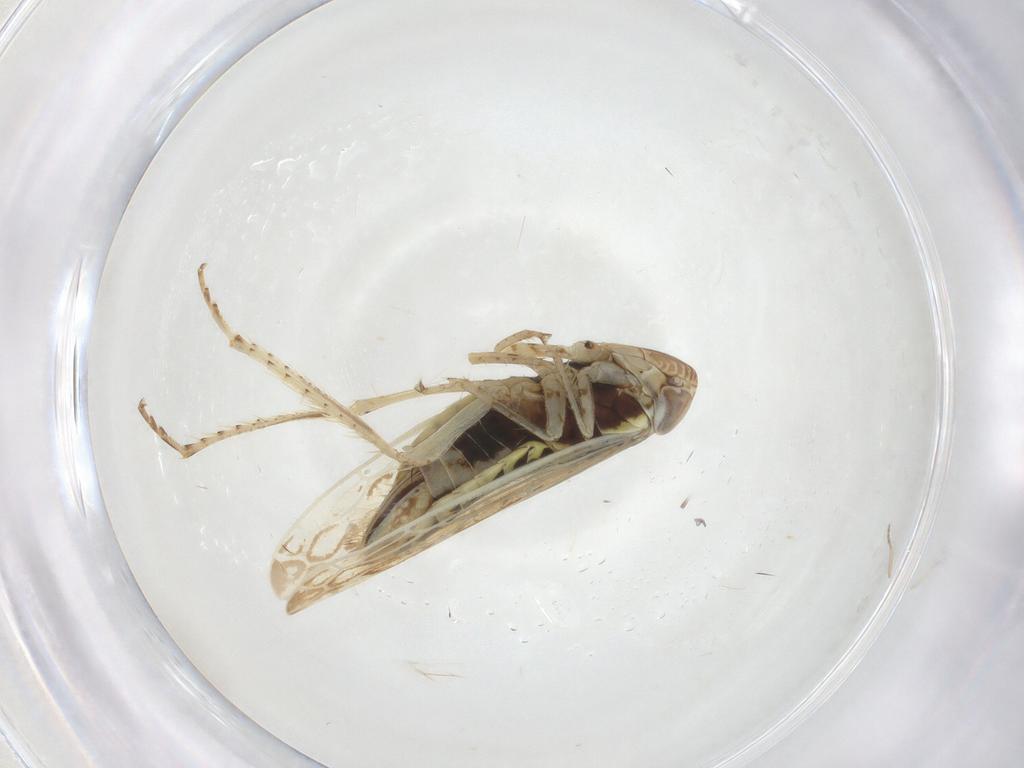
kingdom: Animalia
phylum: Arthropoda
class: Insecta
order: Hemiptera
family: Cicadellidae
